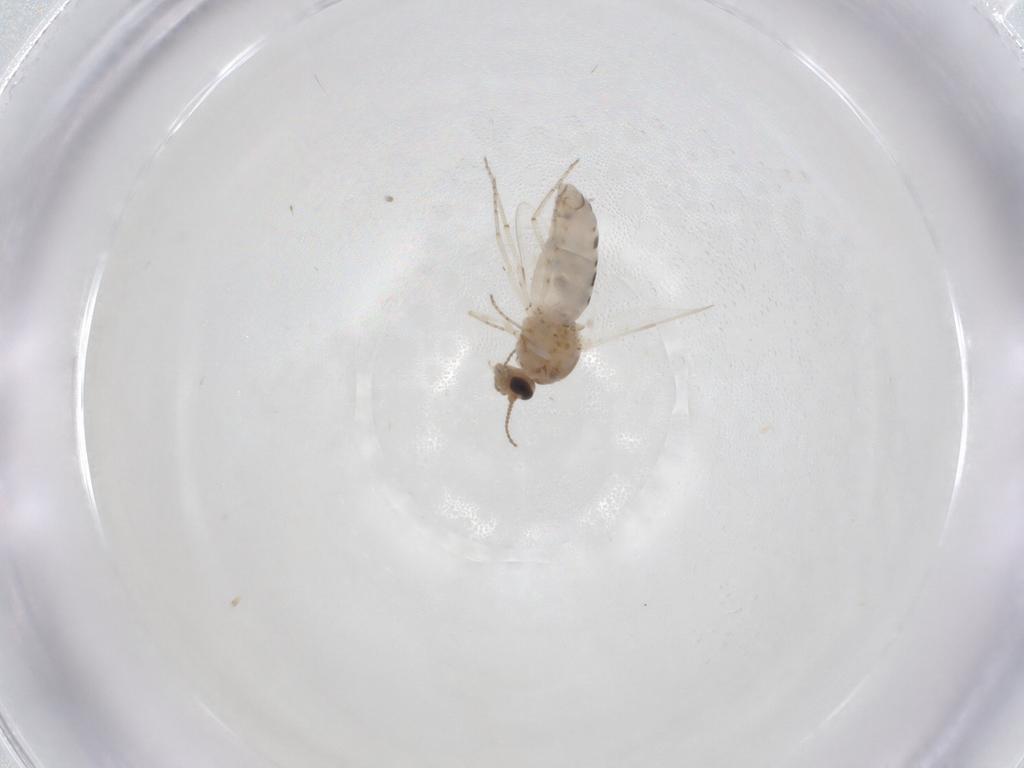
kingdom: Animalia
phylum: Arthropoda
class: Insecta
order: Diptera
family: Ceratopogonidae
